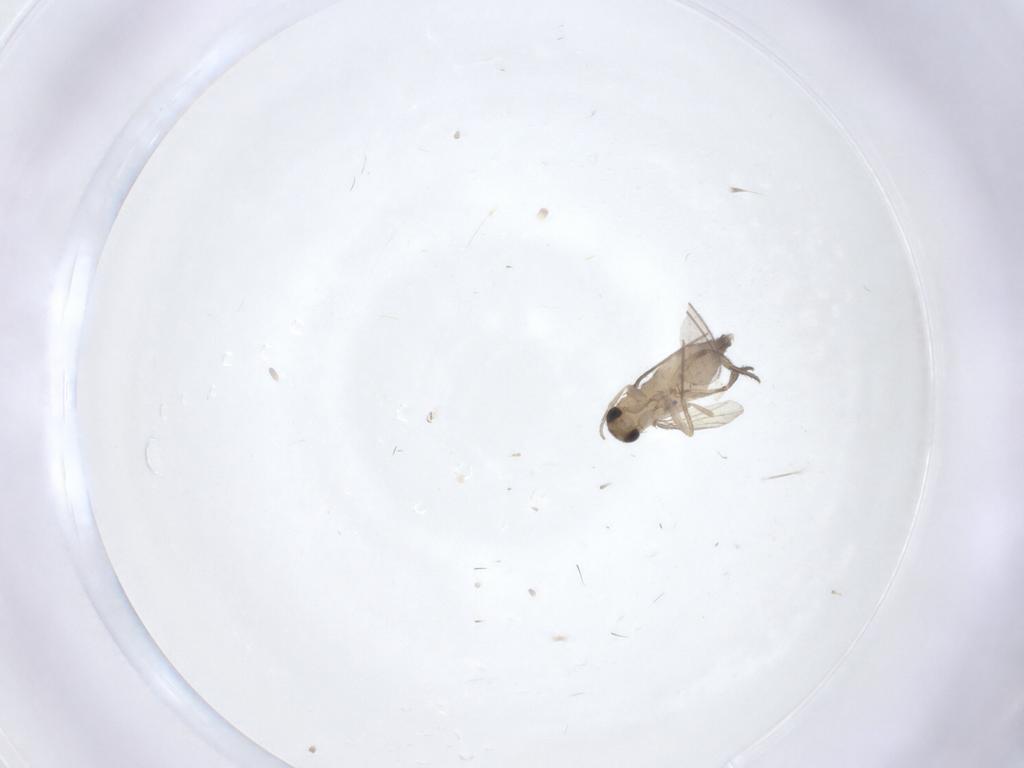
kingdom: Animalia
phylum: Arthropoda
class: Insecta
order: Diptera
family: Phoridae
